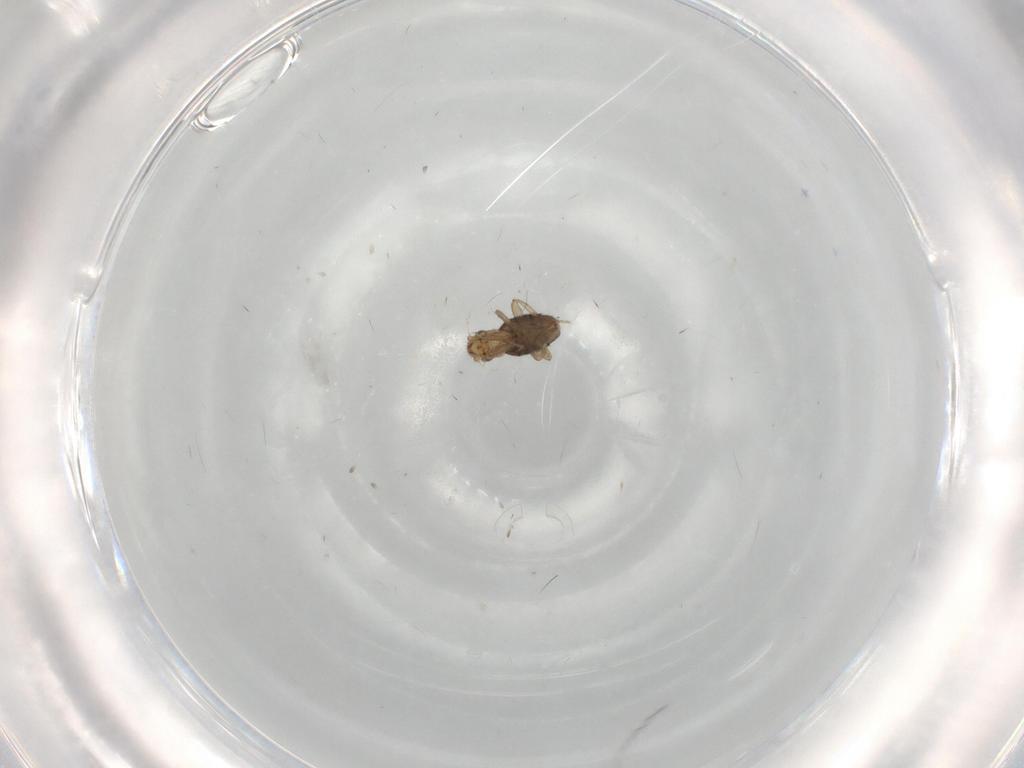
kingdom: Animalia
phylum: Arthropoda
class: Insecta
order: Diptera
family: Phoridae
